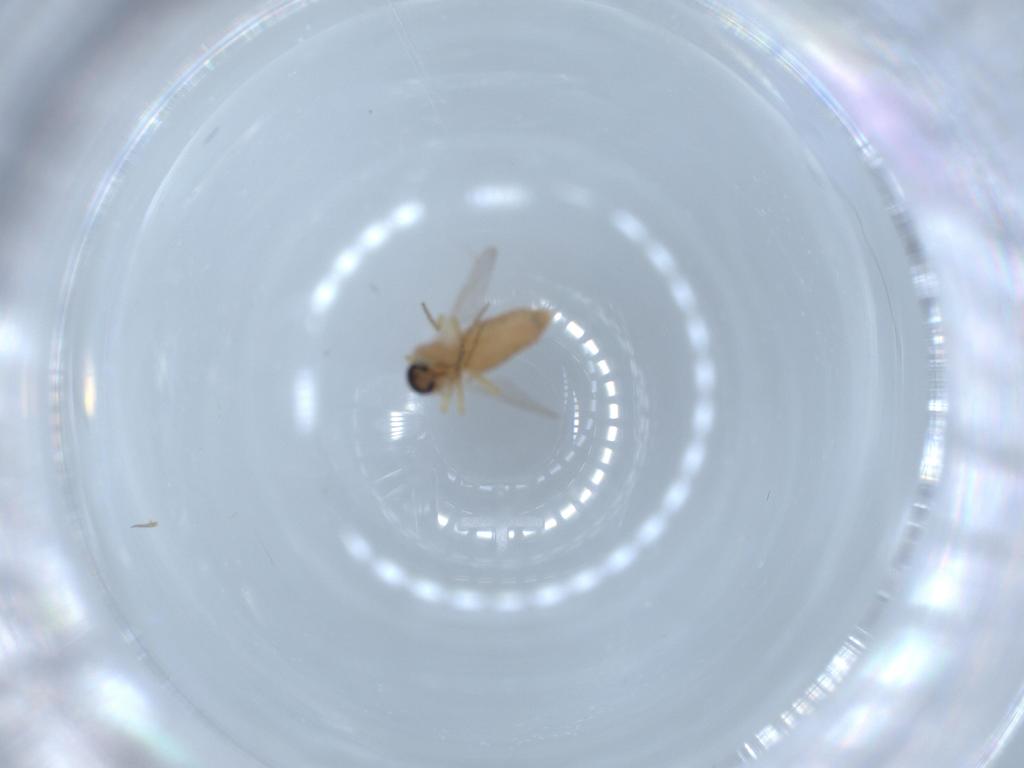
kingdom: Animalia
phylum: Arthropoda
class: Insecta
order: Diptera
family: Ceratopogonidae
